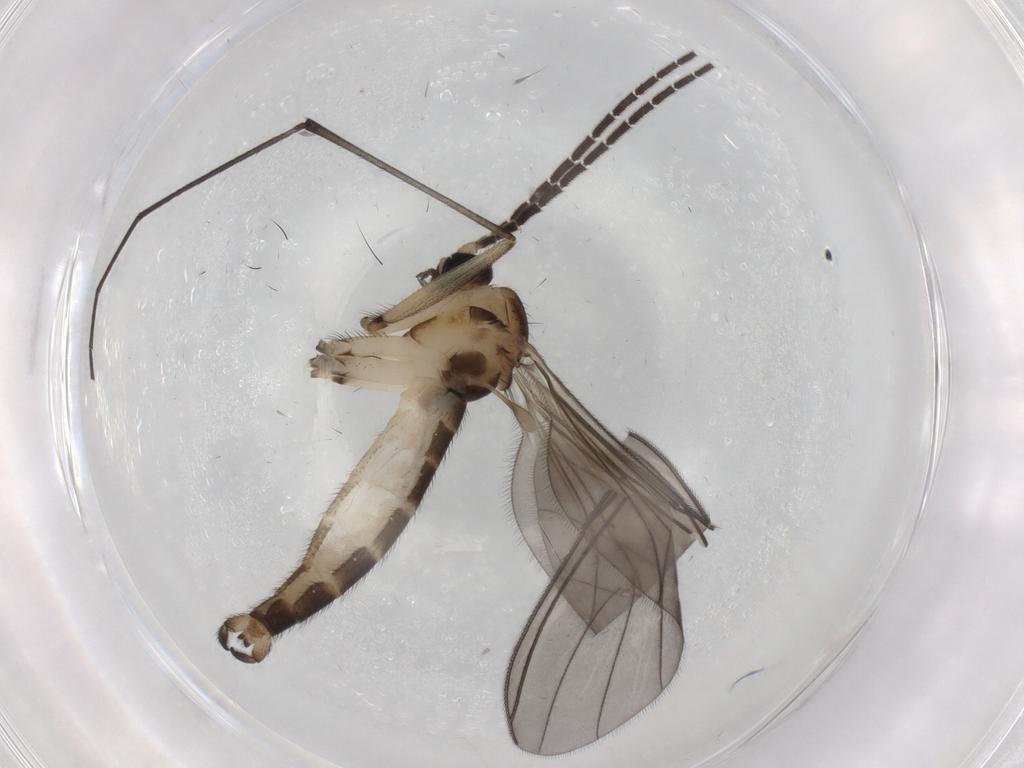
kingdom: Animalia
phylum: Arthropoda
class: Insecta
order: Diptera
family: Sciaridae
